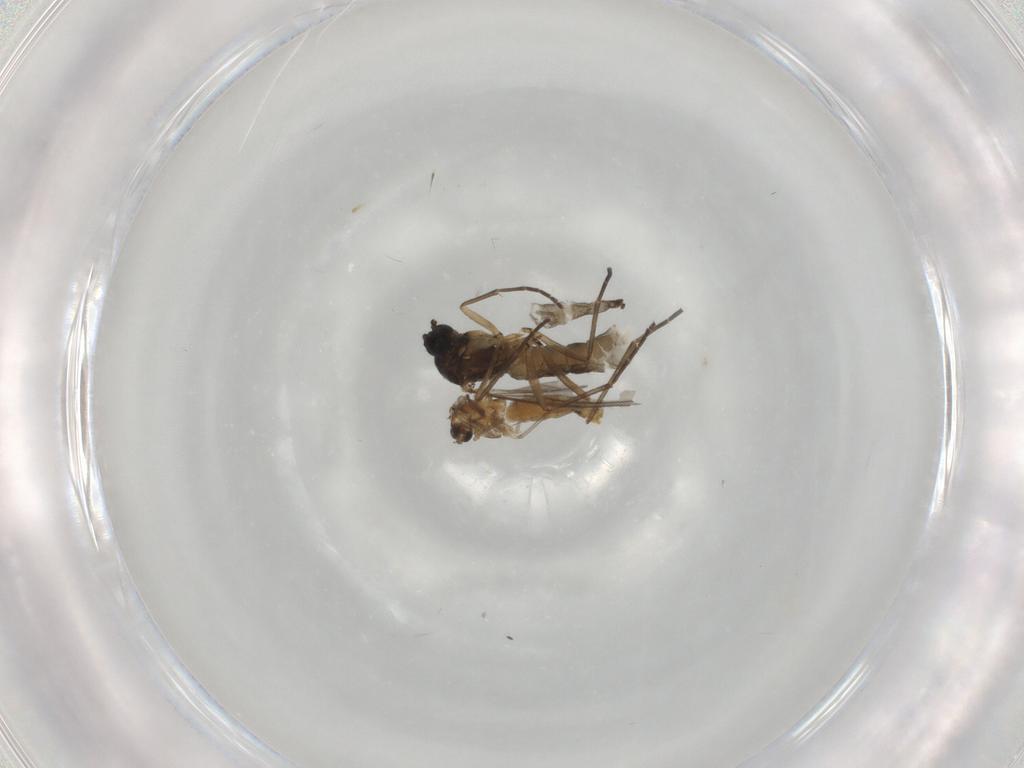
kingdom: Animalia
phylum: Arthropoda
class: Insecta
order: Diptera
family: Sciaridae
